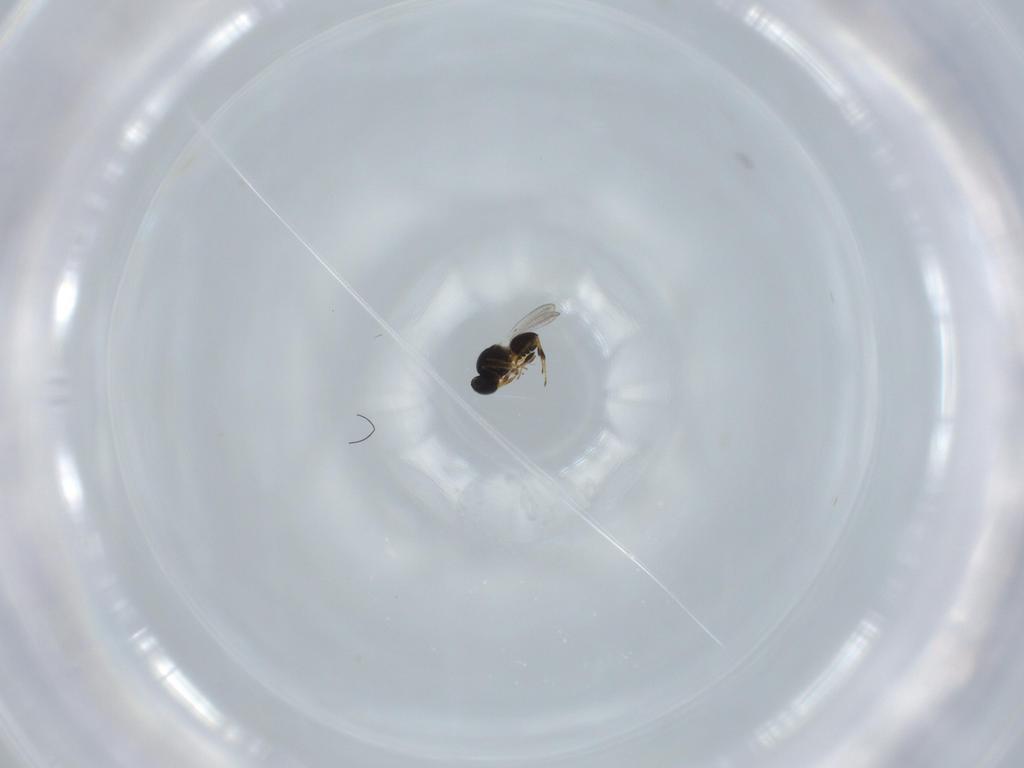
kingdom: Animalia
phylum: Arthropoda
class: Insecta
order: Hymenoptera
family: Platygastridae
